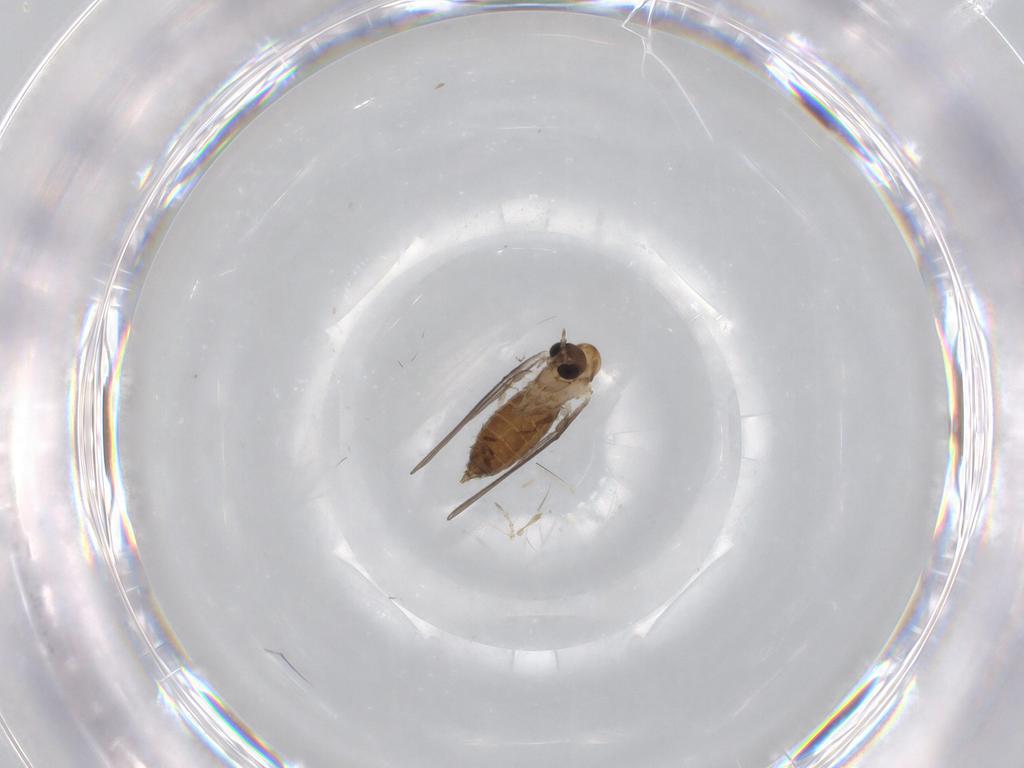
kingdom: Animalia
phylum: Arthropoda
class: Insecta
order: Diptera
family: Chironomidae
